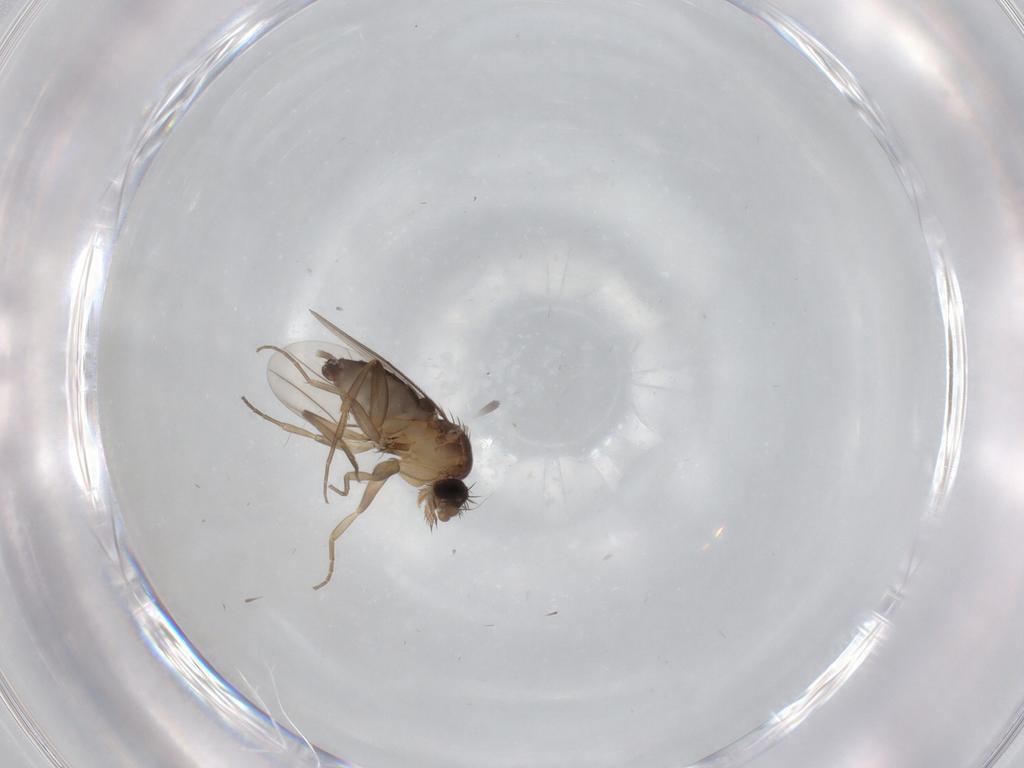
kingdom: Animalia
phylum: Arthropoda
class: Insecta
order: Diptera
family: Phoridae
